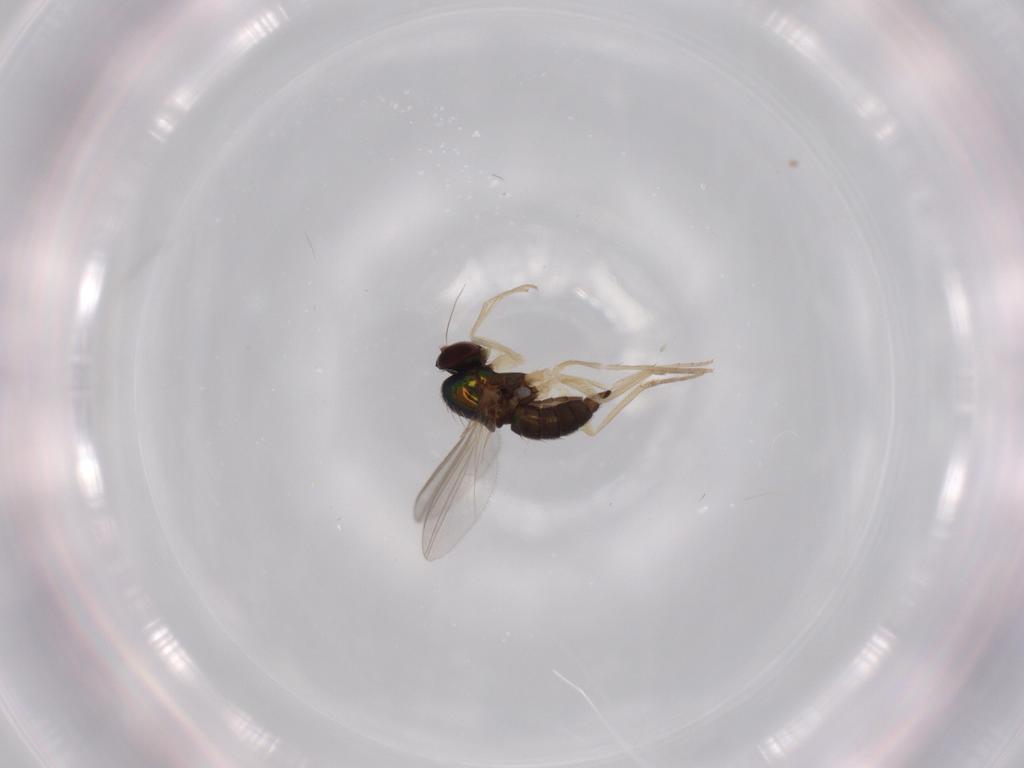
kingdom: Animalia
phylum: Arthropoda
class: Insecta
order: Diptera
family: Dolichopodidae
